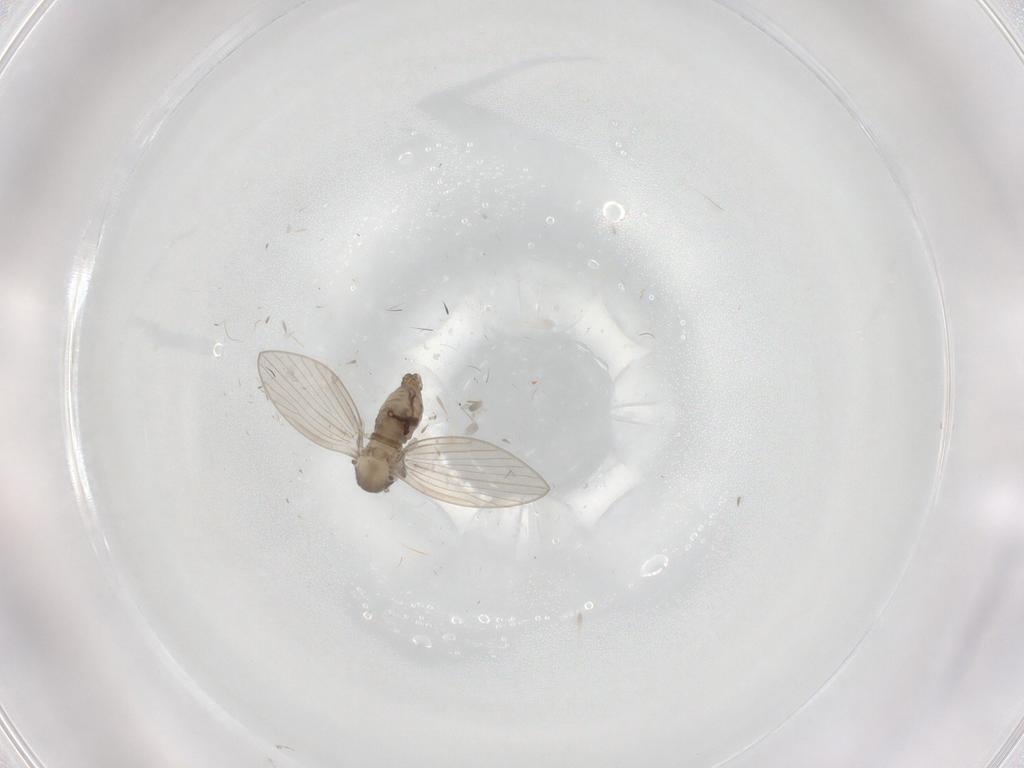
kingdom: Animalia
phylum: Arthropoda
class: Insecta
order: Diptera
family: Psychodidae
